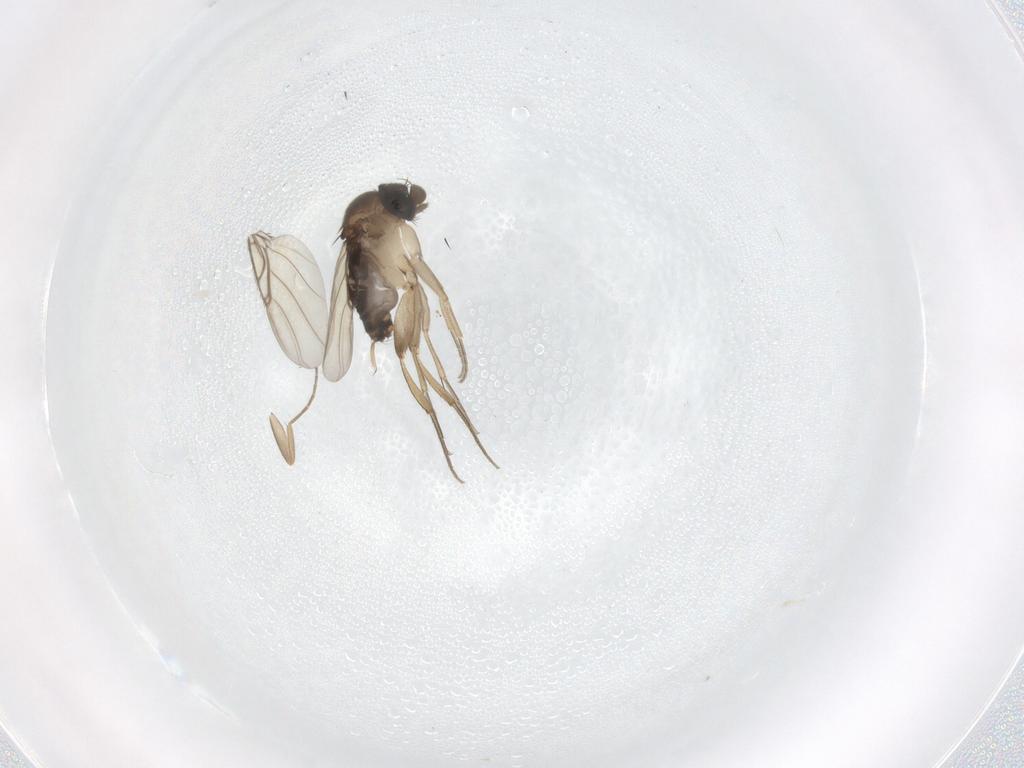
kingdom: Animalia
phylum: Arthropoda
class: Insecta
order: Diptera
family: Phoridae
